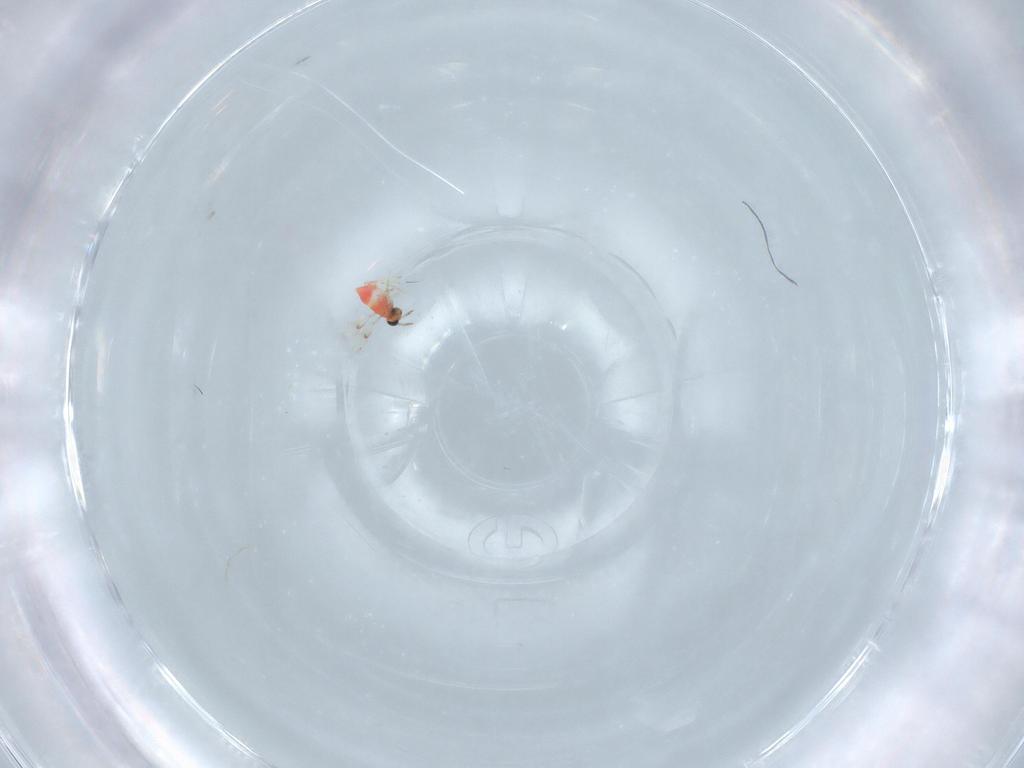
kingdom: Animalia
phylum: Arthropoda
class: Insecta
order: Hymenoptera
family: Trichogrammatidae
